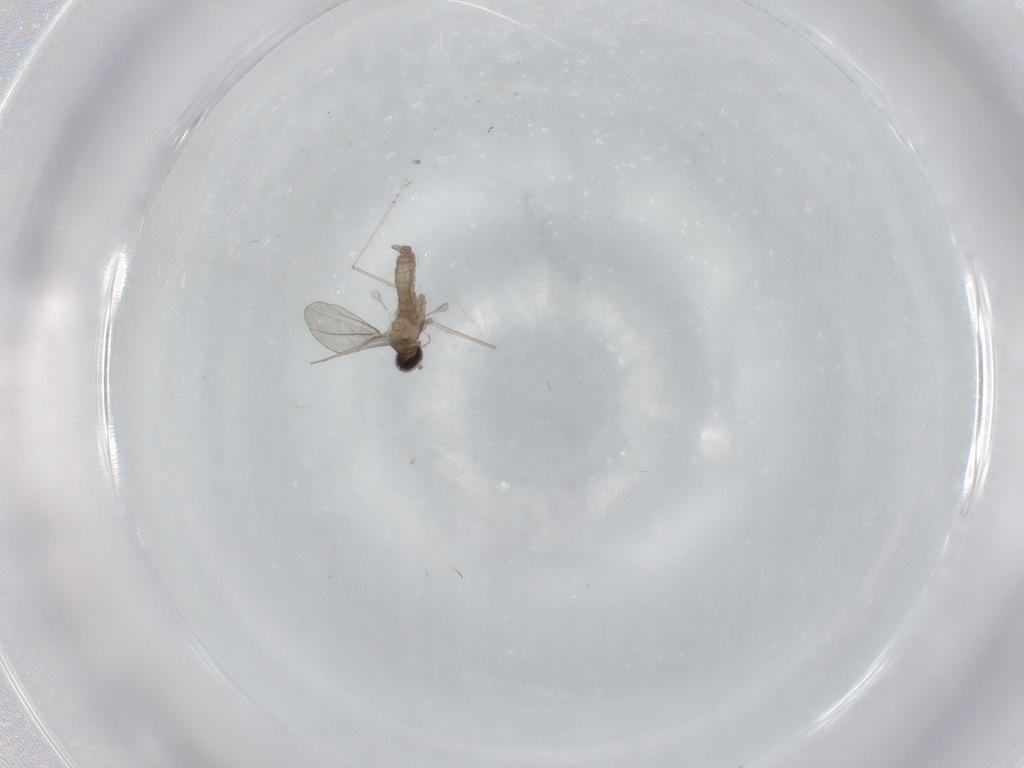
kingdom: Animalia
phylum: Arthropoda
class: Insecta
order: Diptera
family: Cecidomyiidae
